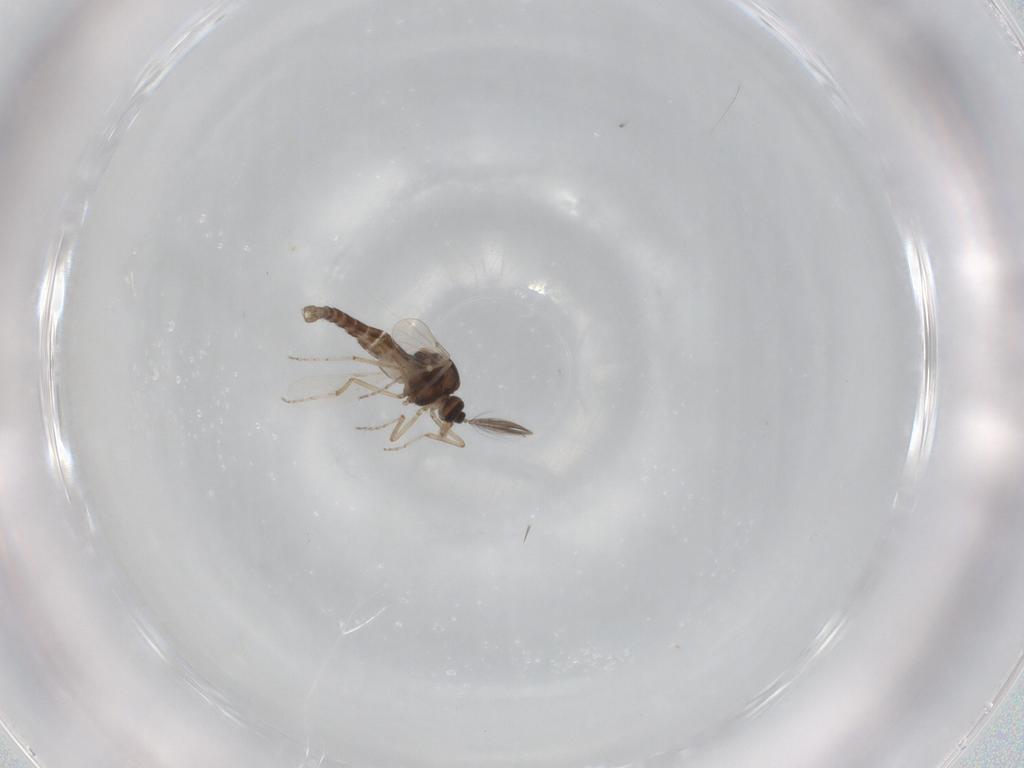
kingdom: Animalia
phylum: Arthropoda
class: Insecta
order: Diptera
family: Ceratopogonidae
